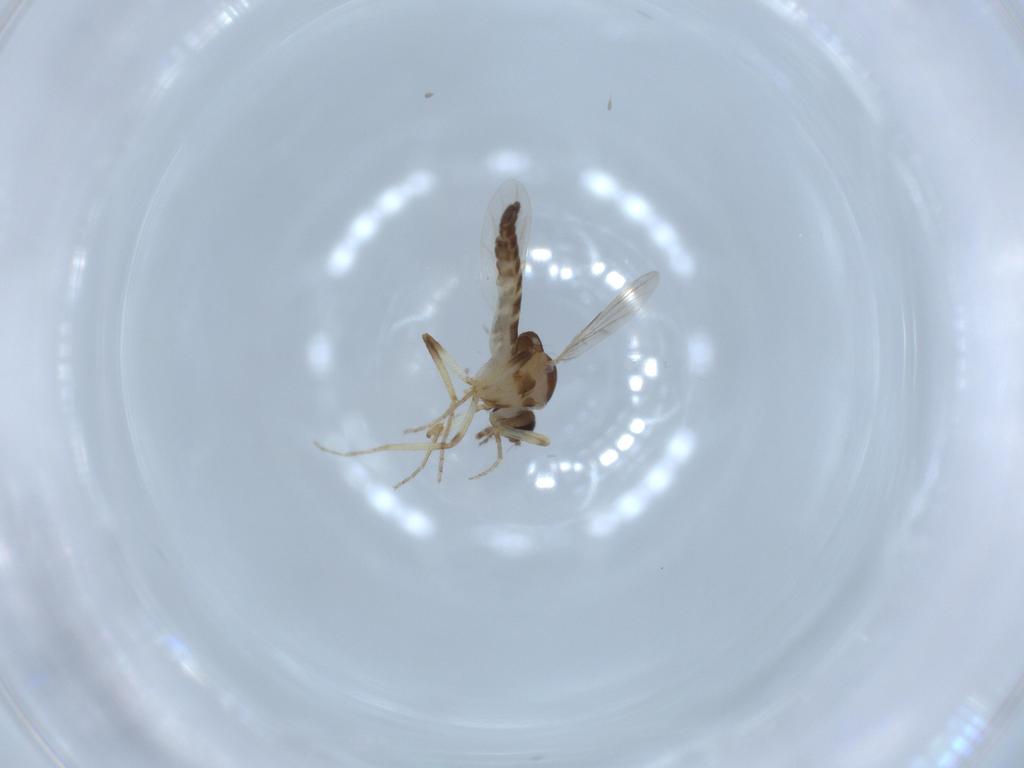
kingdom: Animalia
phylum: Arthropoda
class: Insecta
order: Diptera
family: Ceratopogonidae
